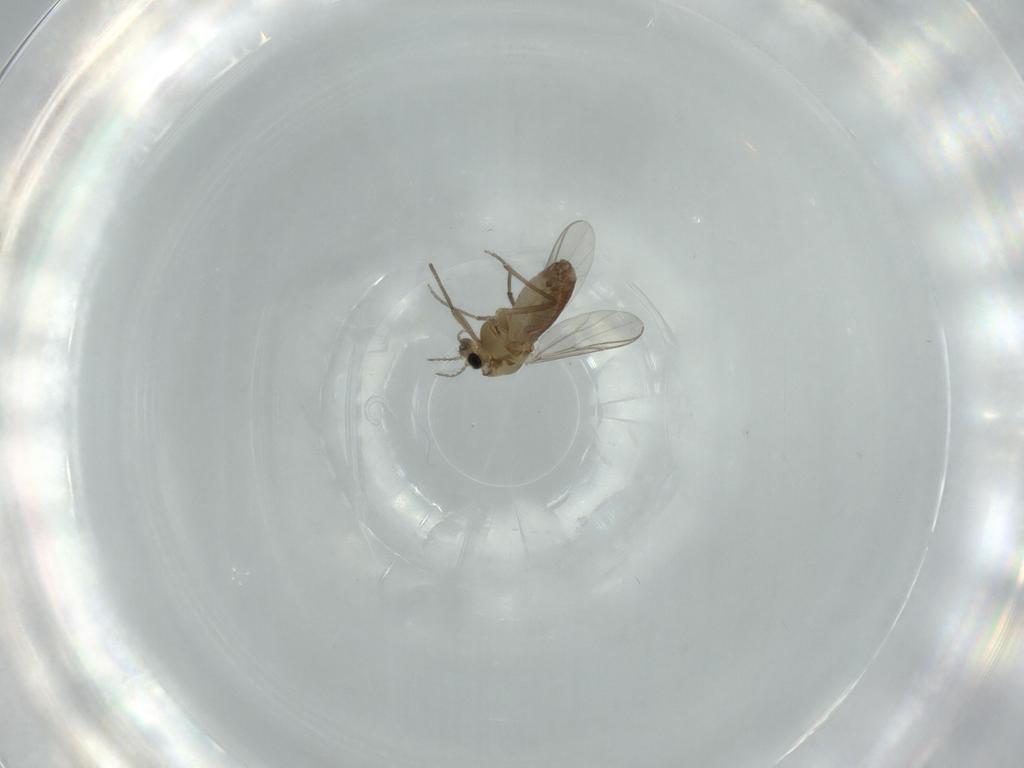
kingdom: Animalia
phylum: Arthropoda
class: Insecta
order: Diptera
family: Chironomidae
